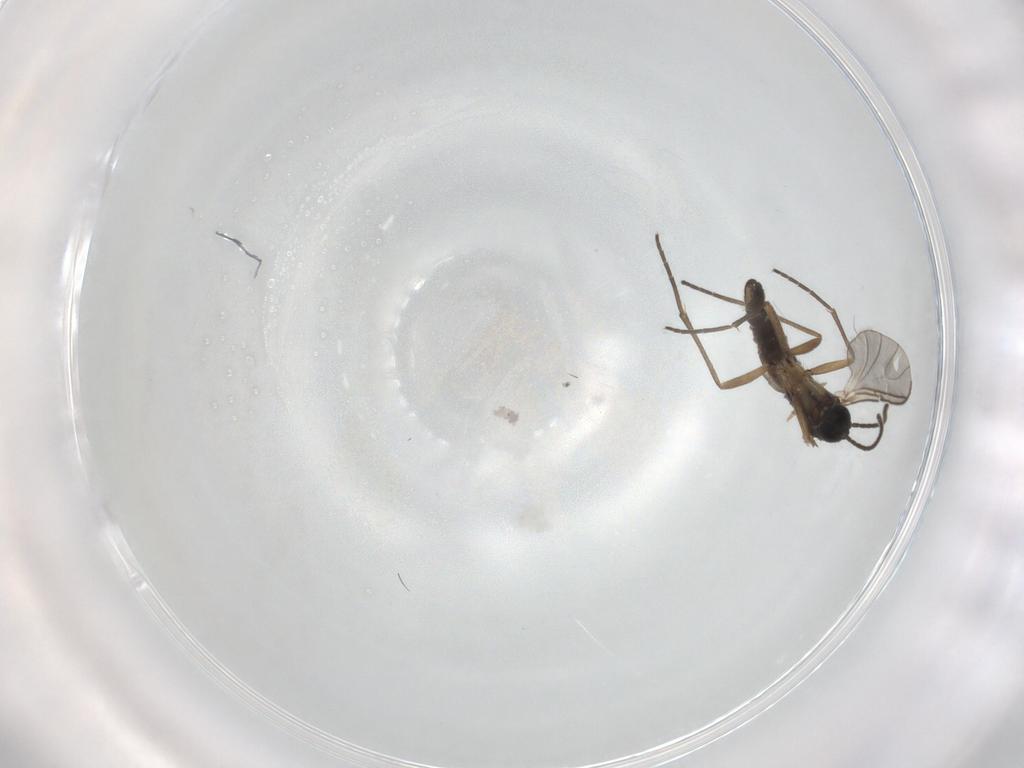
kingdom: Animalia
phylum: Arthropoda
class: Insecta
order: Diptera
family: Sciaridae
